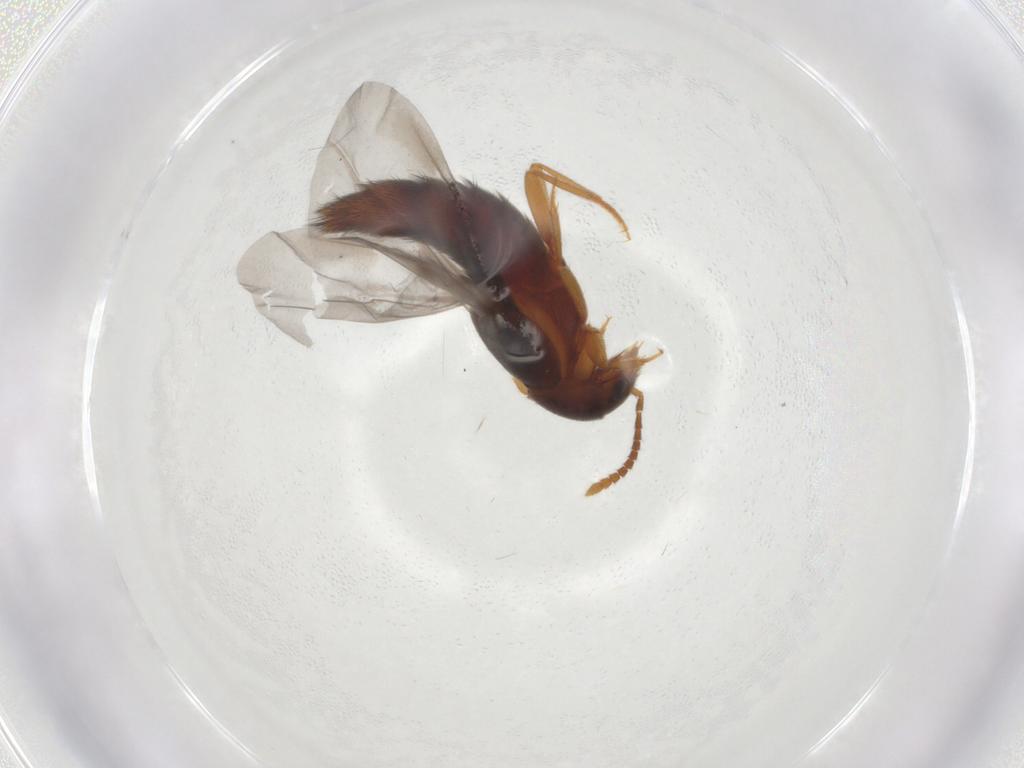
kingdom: Animalia
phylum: Arthropoda
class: Insecta
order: Coleoptera
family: Staphylinidae
